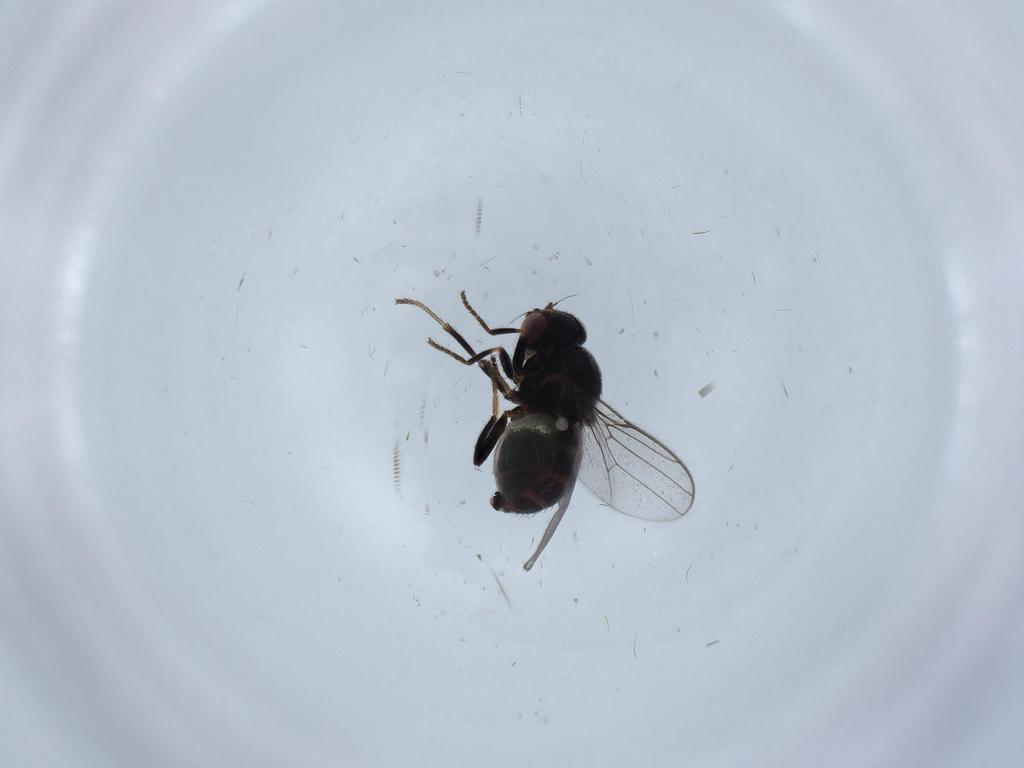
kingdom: Animalia
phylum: Arthropoda
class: Insecta
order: Diptera
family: Chloropidae
